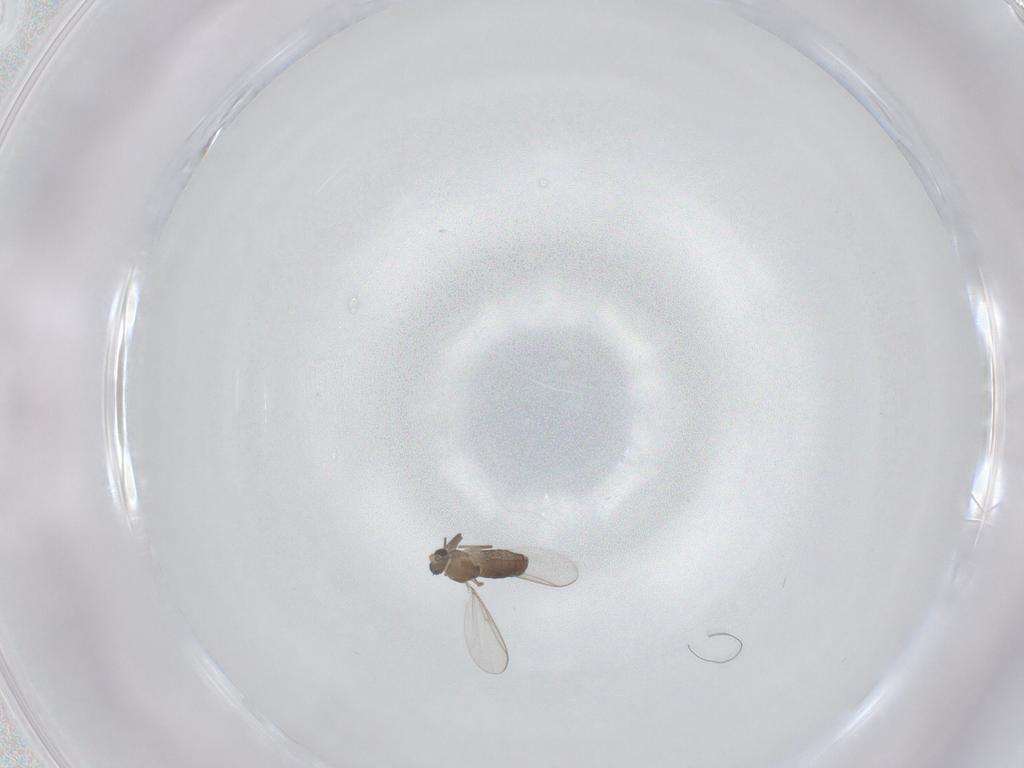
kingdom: Animalia
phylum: Arthropoda
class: Insecta
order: Diptera
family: Chironomidae
